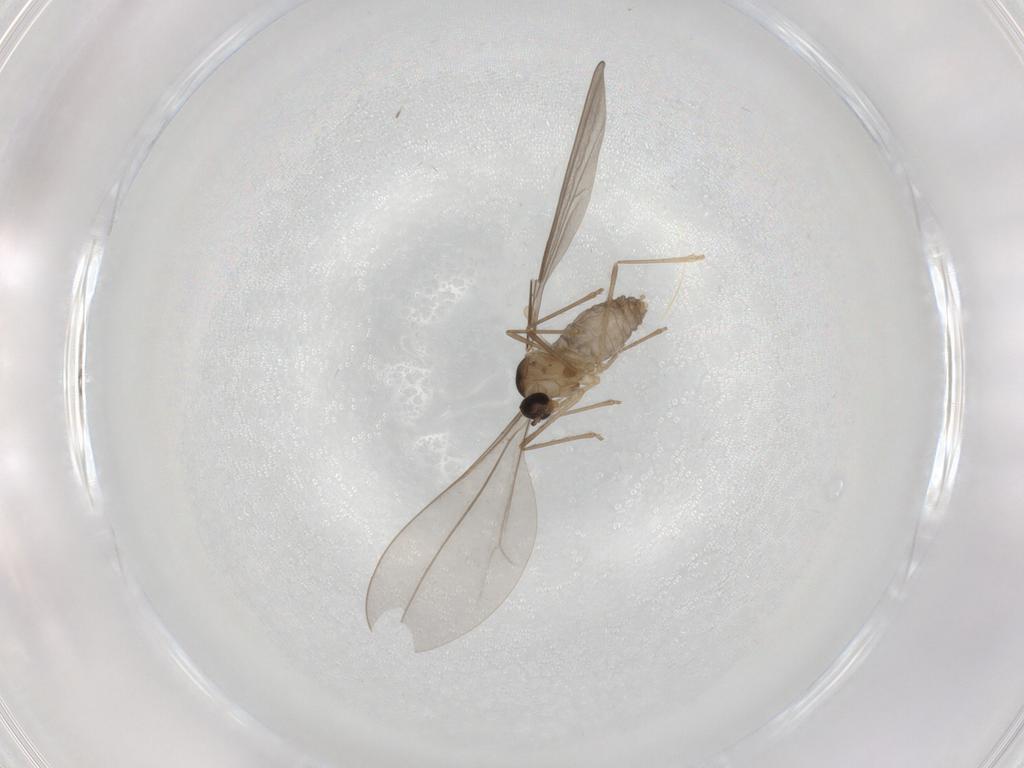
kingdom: Animalia
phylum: Arthropoda
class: Insecta
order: Diptera
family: Cecidomyiidae
